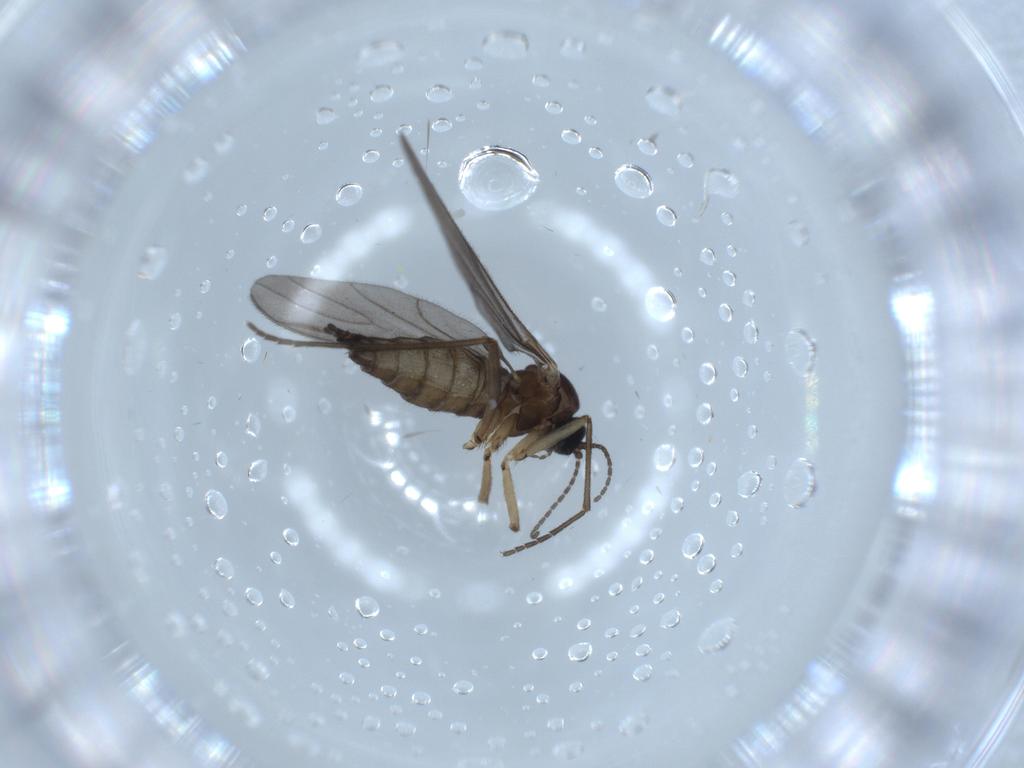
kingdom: Animalia
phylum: Arthropoda
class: Insecta
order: Diptera
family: Sciaridae
